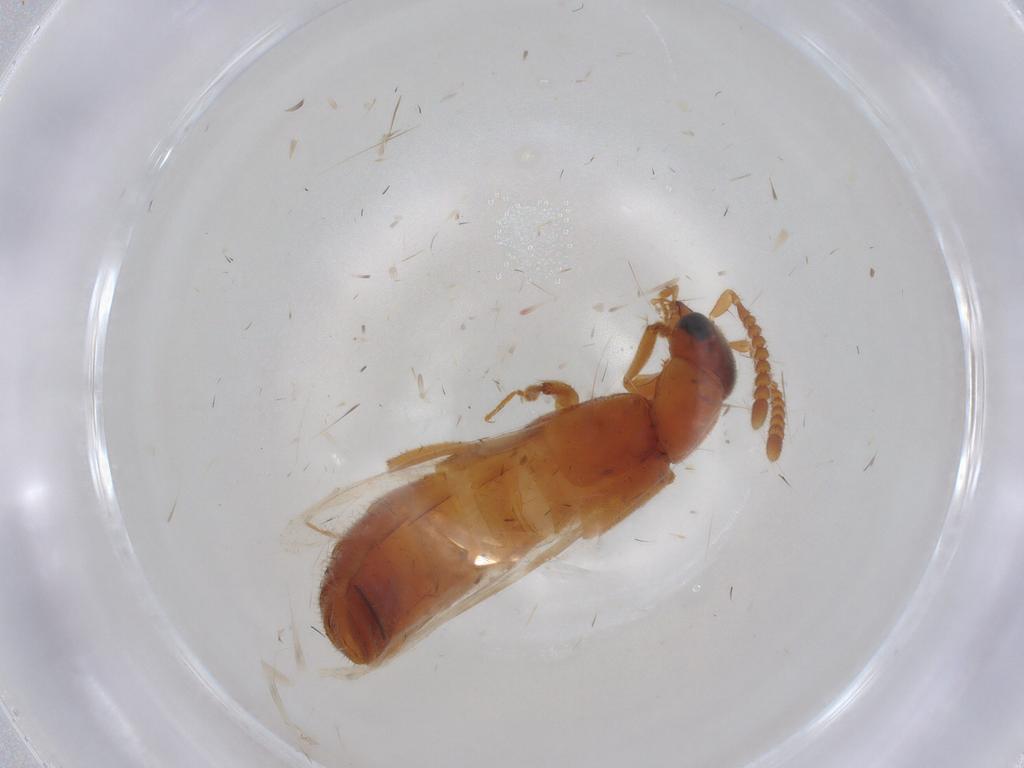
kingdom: Animalia
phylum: Arthropoda
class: Insecta
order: Coleoptera
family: Staphylinidae
